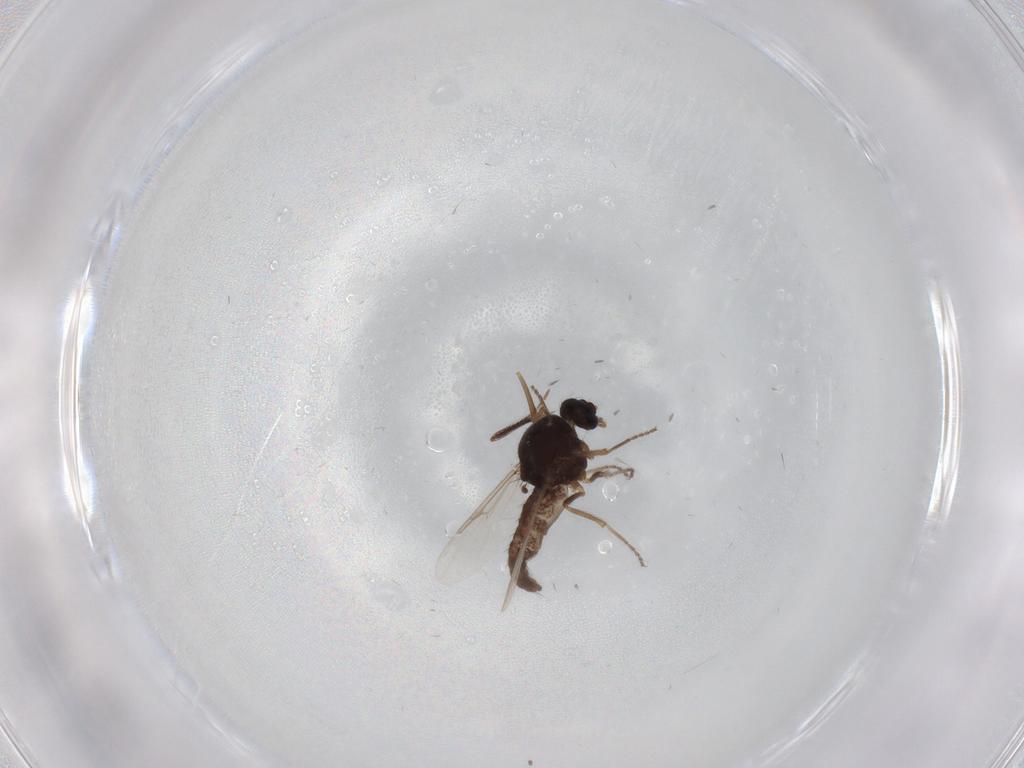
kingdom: Animalia
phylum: Arthropoda
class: Insecta
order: Diptera
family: Ceratopogonidae
